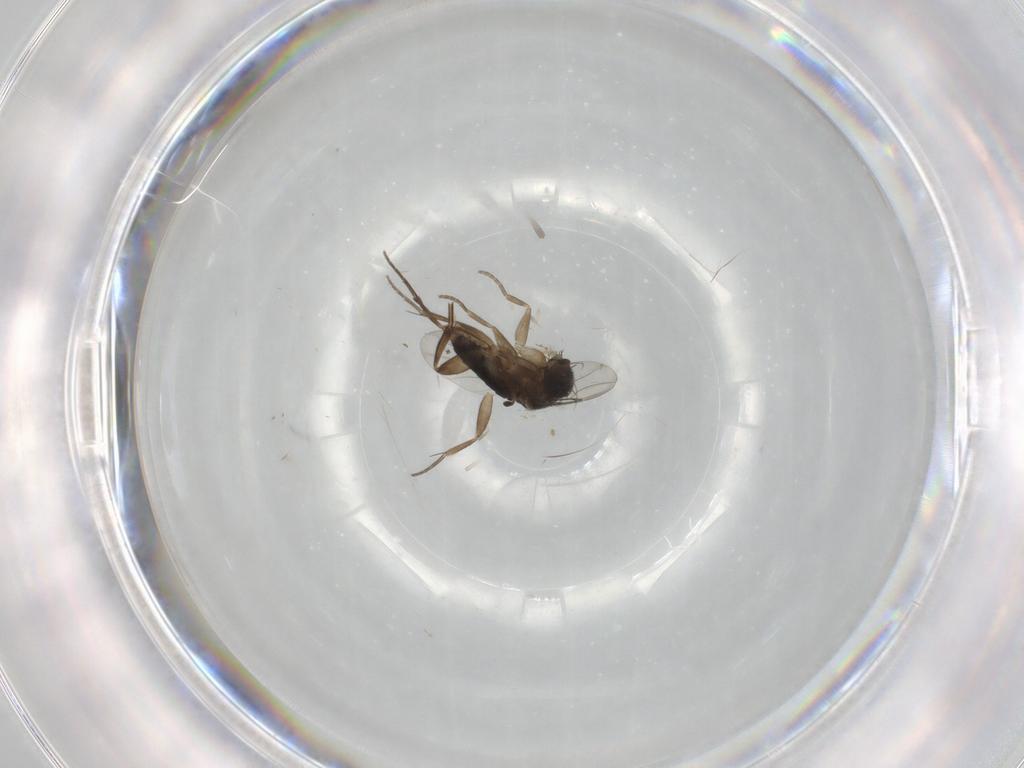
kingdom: Animalia
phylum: Arthropoda
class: Insecta
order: Diptera
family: Phoridae
